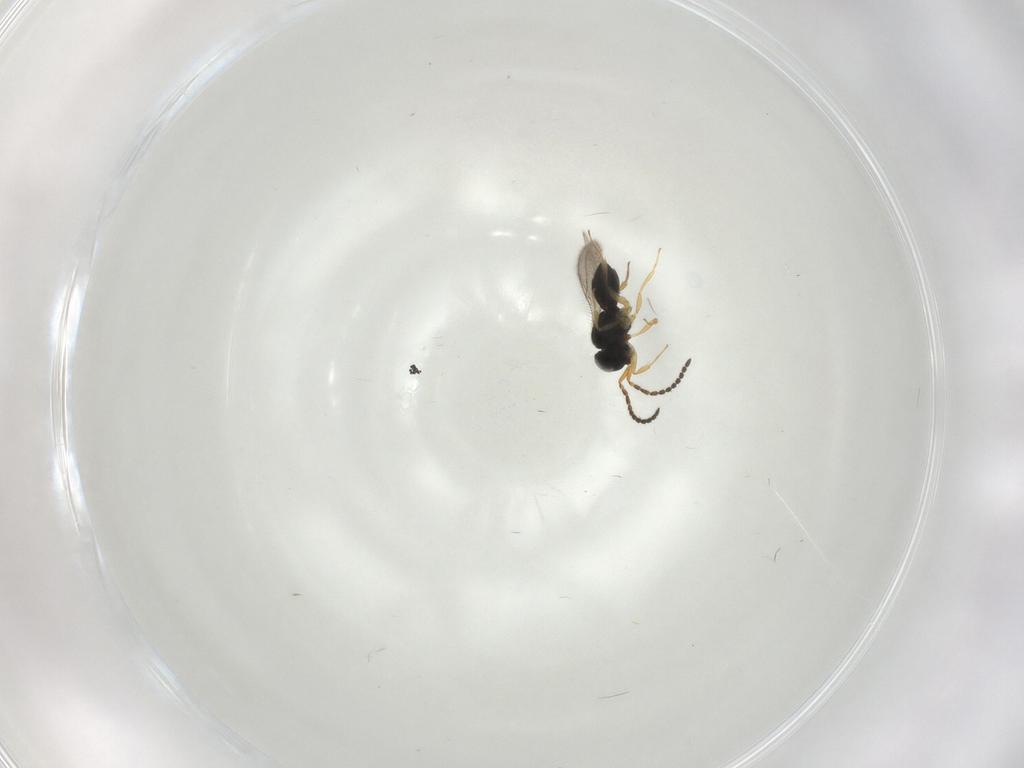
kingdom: Animalia
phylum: Arthropoda
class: Insecta
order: Hymenoptera
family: Scelionidae
